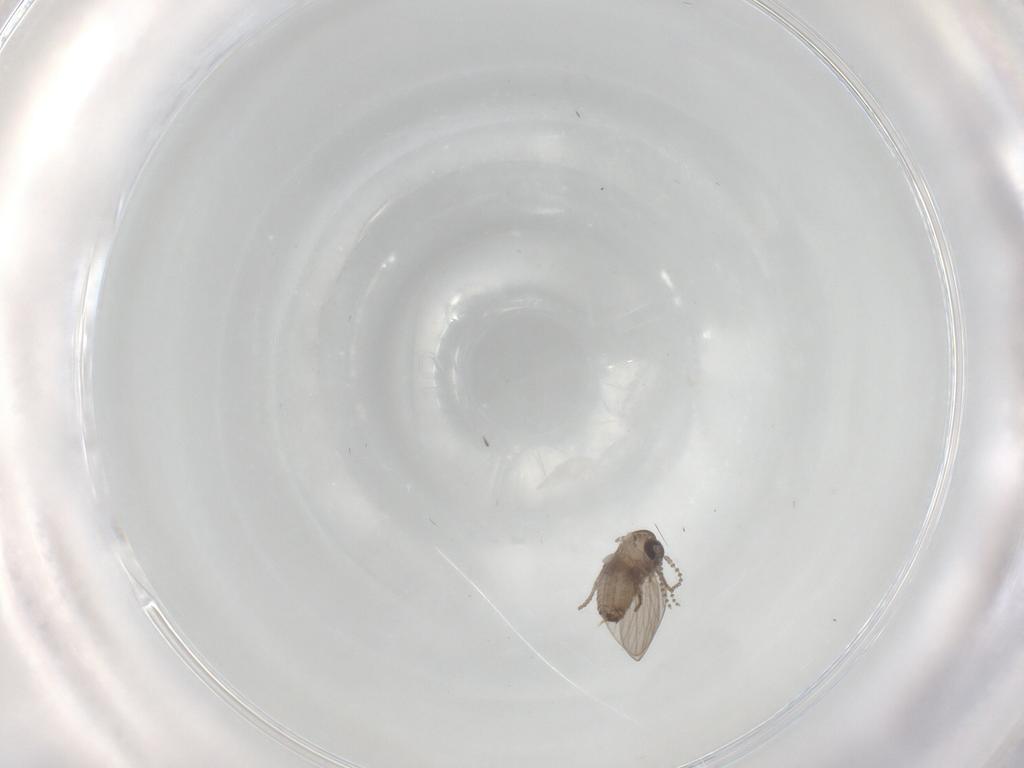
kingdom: Animalia
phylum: Arthropoda
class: Insecta
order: Diptera
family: Psychodidae
